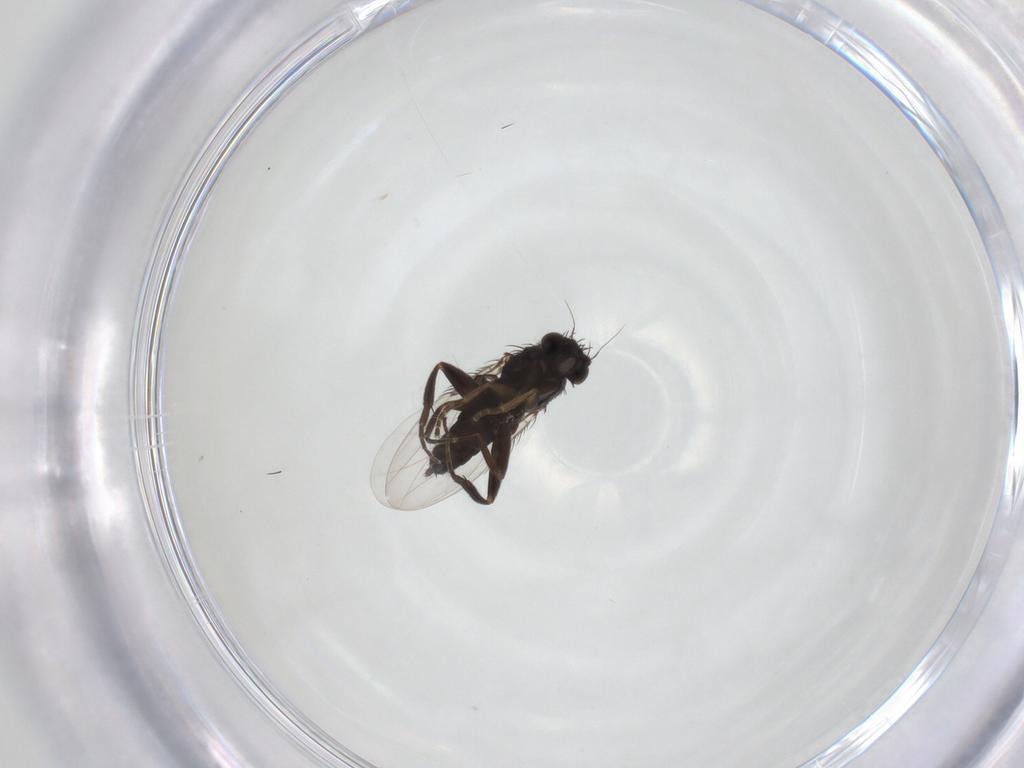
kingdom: Animalia
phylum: Arthropoda
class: Insecta
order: Diptera
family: Phoridae
